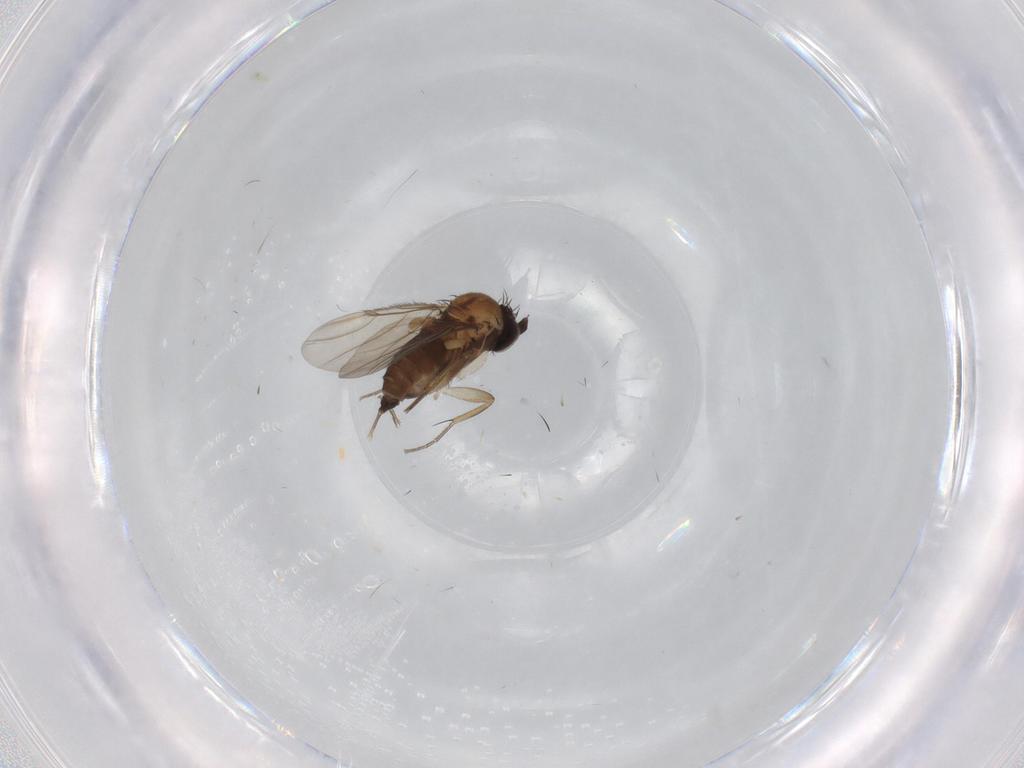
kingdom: Animalia
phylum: Arthropoda
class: Insecta
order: Diptera
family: Phoridae
